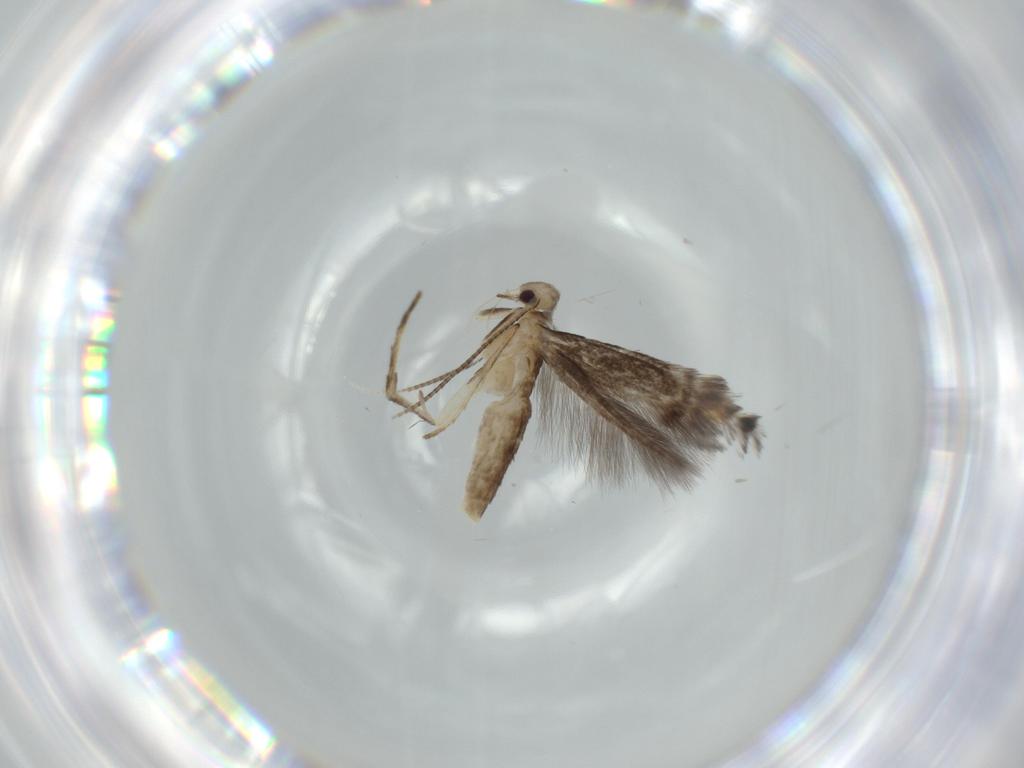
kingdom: Animalia
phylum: Arthropoda
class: Insecta
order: Lepidoptera
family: Gracillariidae
